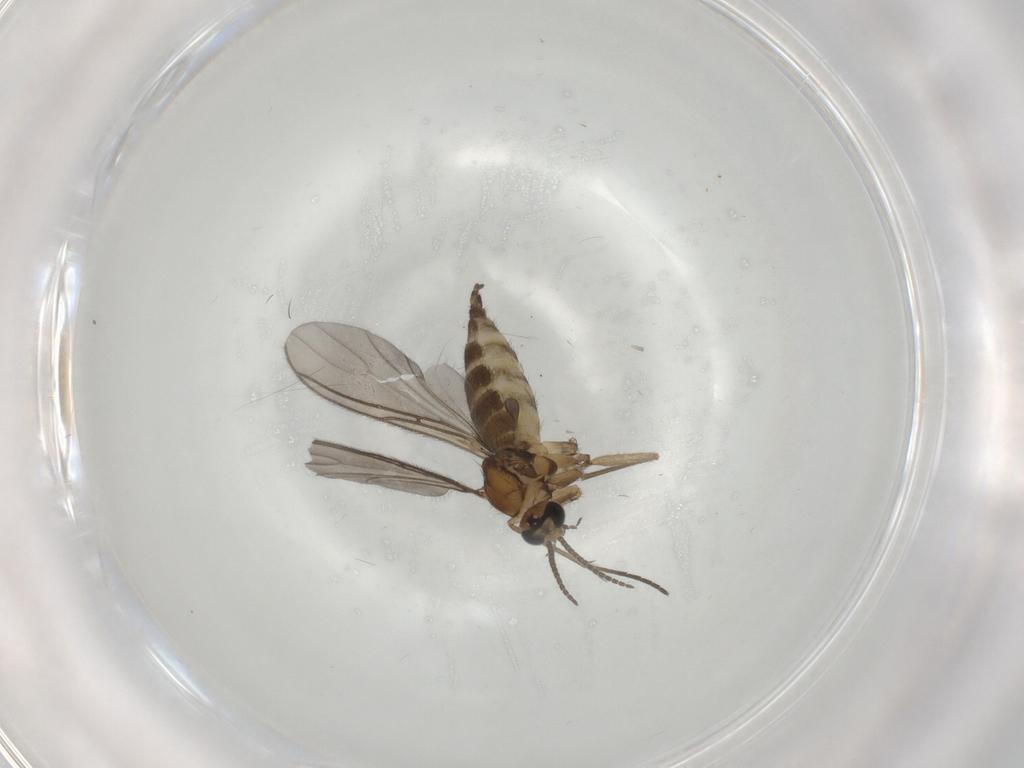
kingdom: Animalia
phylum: Arthropoda
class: Insecta
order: Diptera
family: Sciaridae
